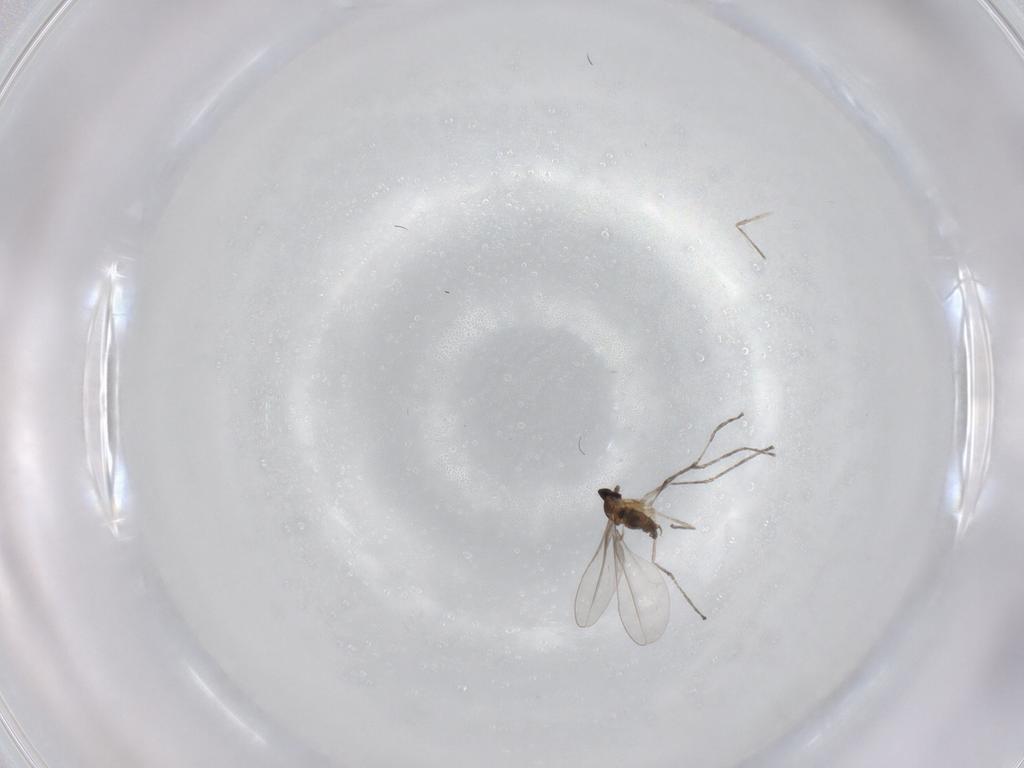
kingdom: Animalia
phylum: Arthropoda
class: Insecta
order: Diptera
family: Cecidomyiidae
